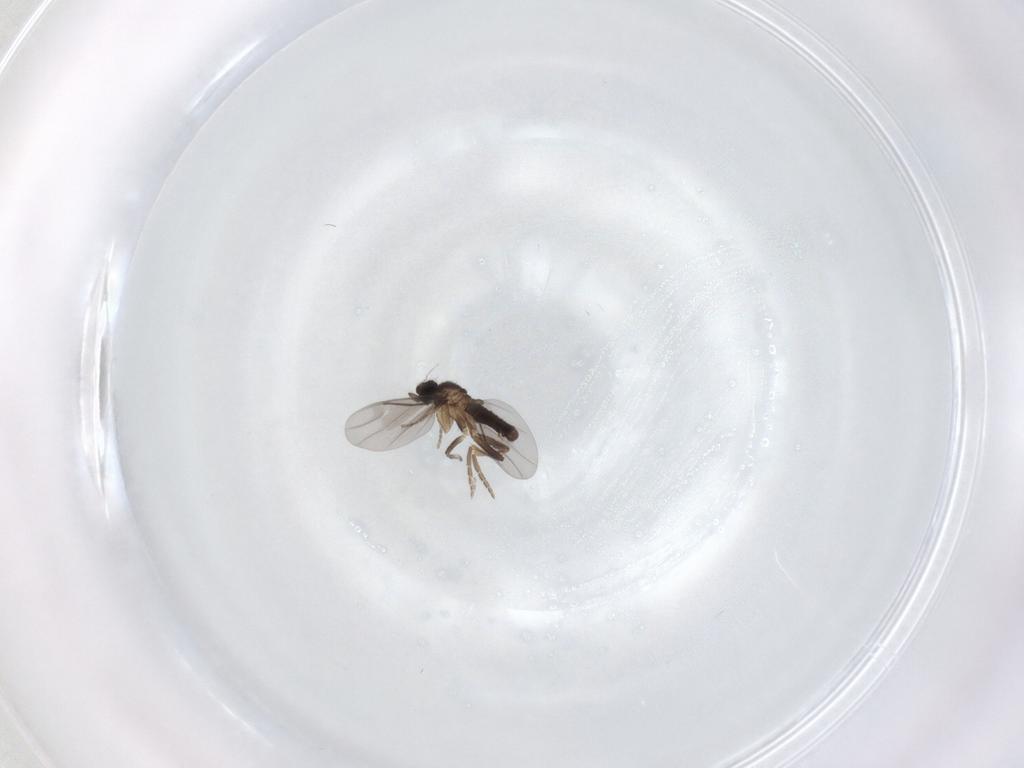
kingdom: Animalia
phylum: Arthropoda
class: Insecta
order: Diptera
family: Phoridae
